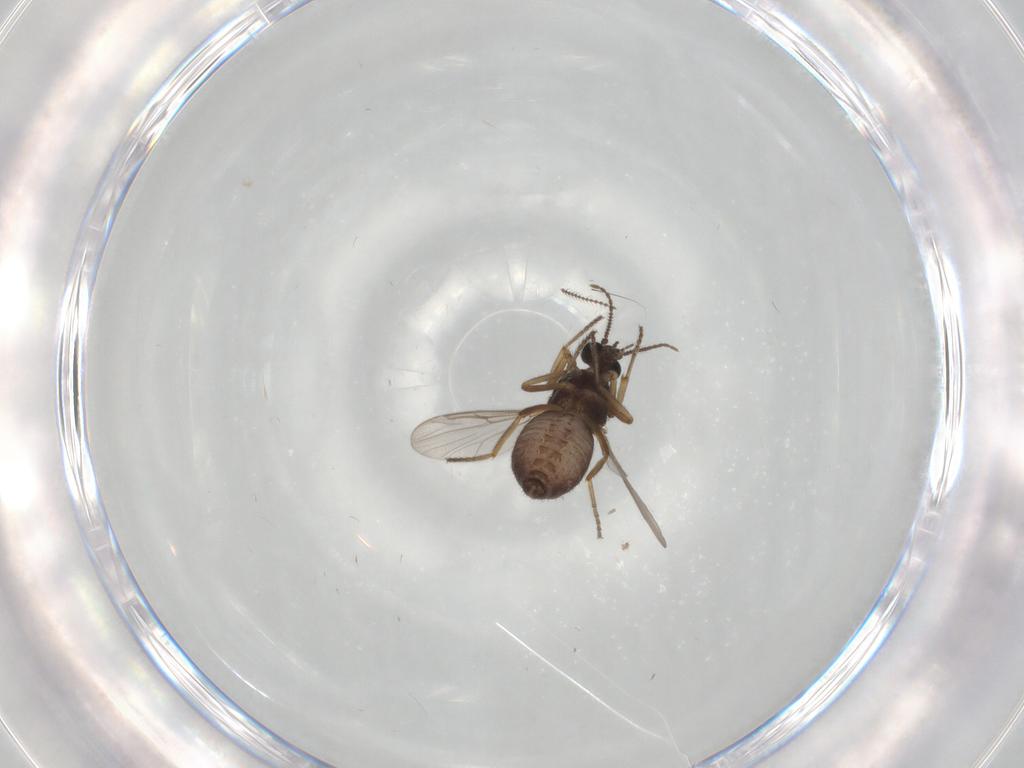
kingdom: Animalia
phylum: Arthropoda
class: Insecta
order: Diptera
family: Ceratopogonidae
